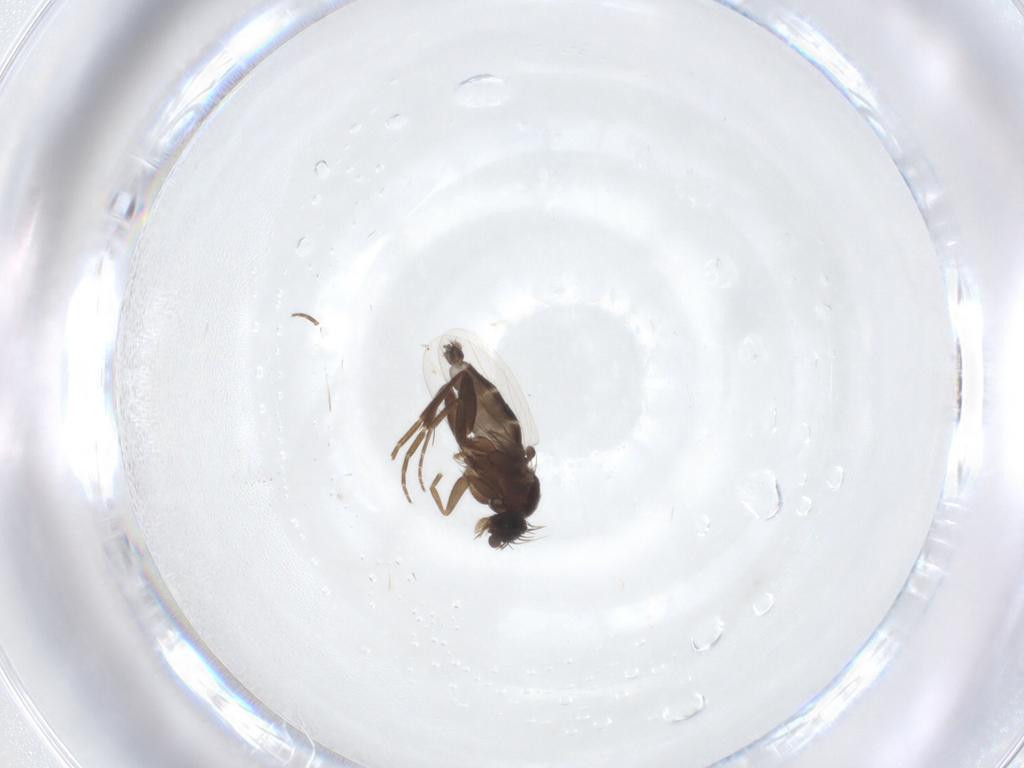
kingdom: Animalia
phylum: Arthropoda
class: Insecta
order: Diptera
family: Phoridae
